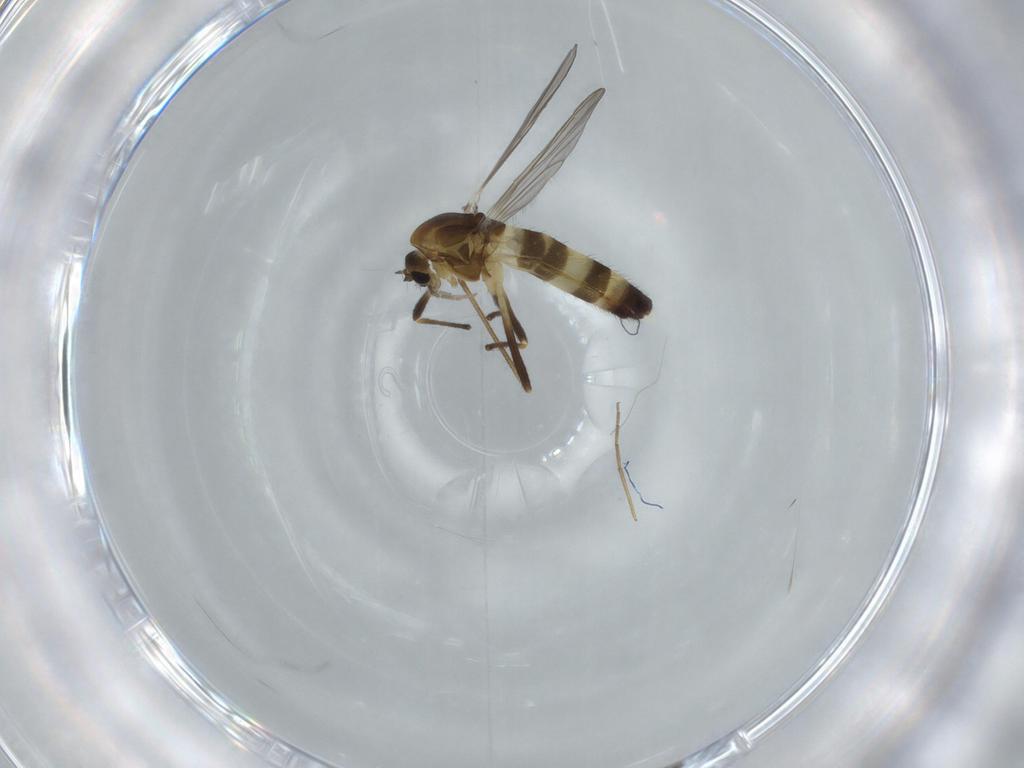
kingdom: Animalia
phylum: Arthropoda
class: Insecta
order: Diptera
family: Chironomidae
